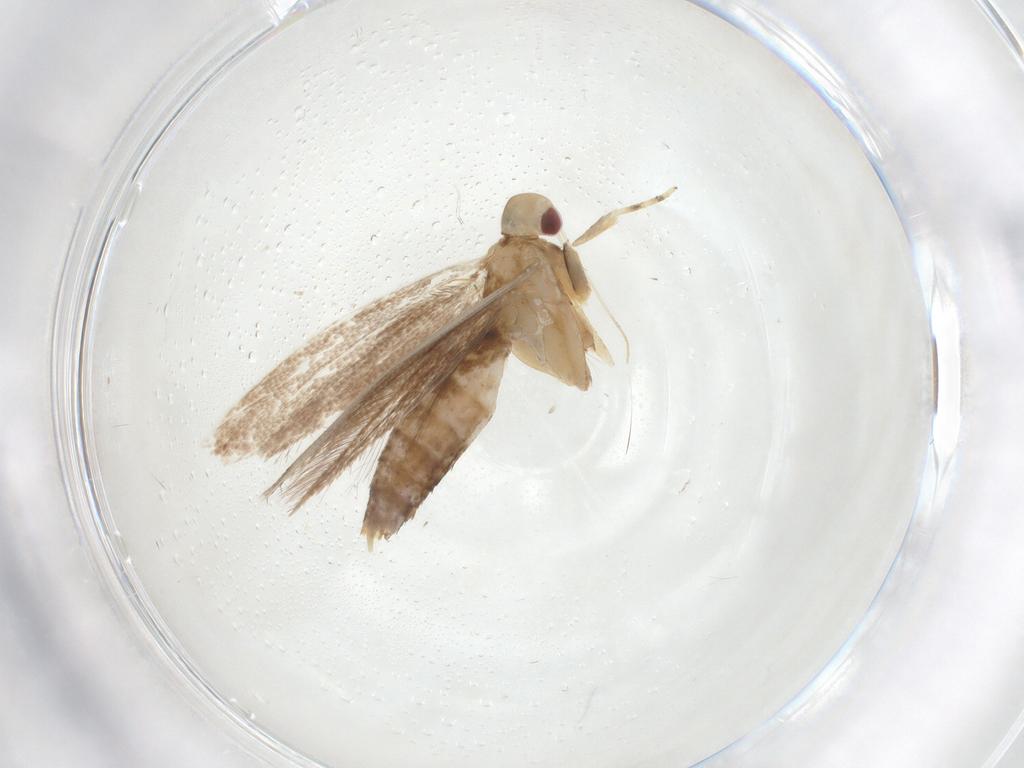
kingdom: Animalia
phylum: Arthropoda
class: Insecta
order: Lepidoptera
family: Cosmopterigidae
